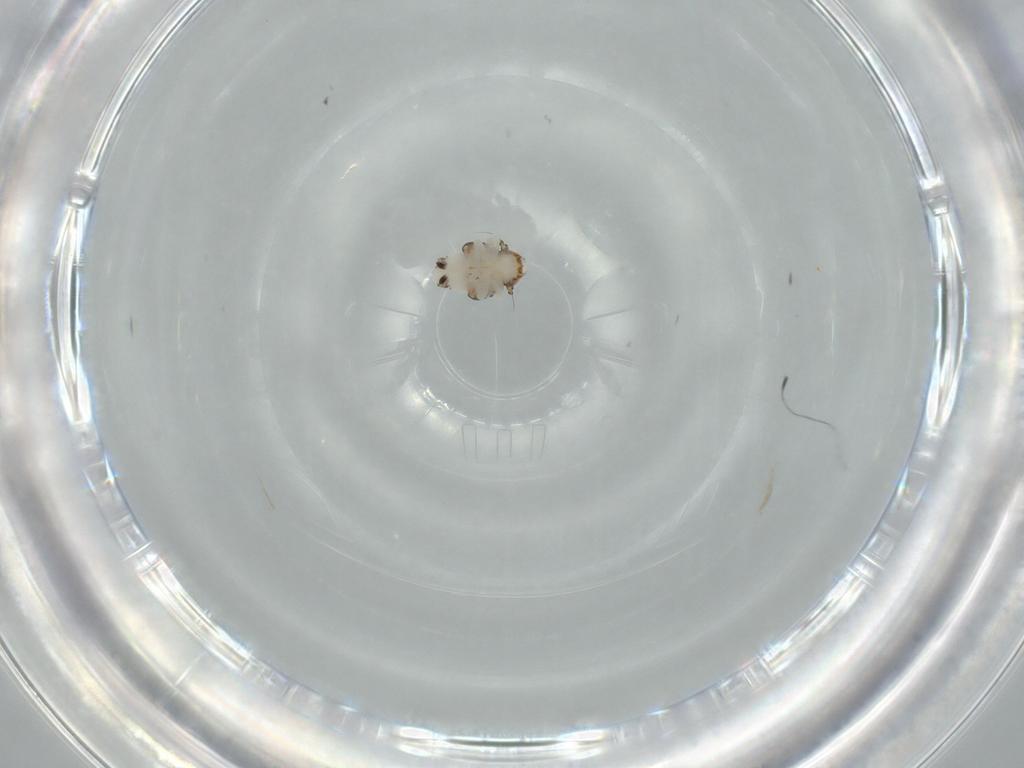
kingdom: Animalia
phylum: Arthropoda
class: Insecta
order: Hemiptera
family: Nogodinidae
